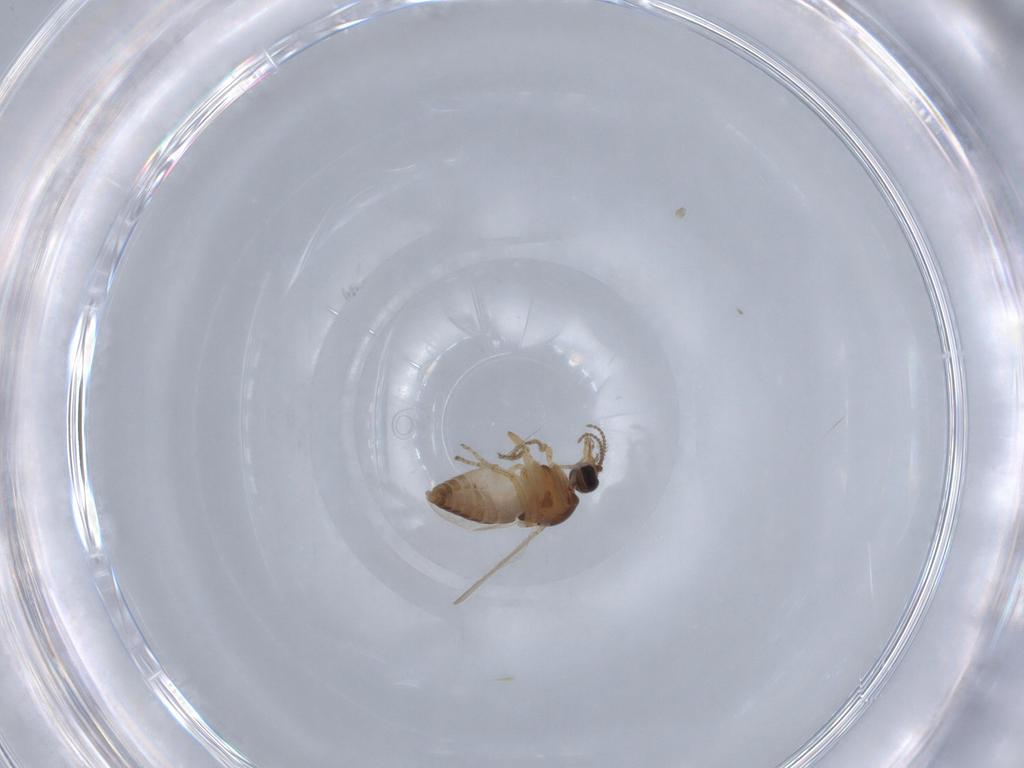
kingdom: Animalia
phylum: Arthropoda
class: Insecta
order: Diptera
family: Ceratopogonidae
